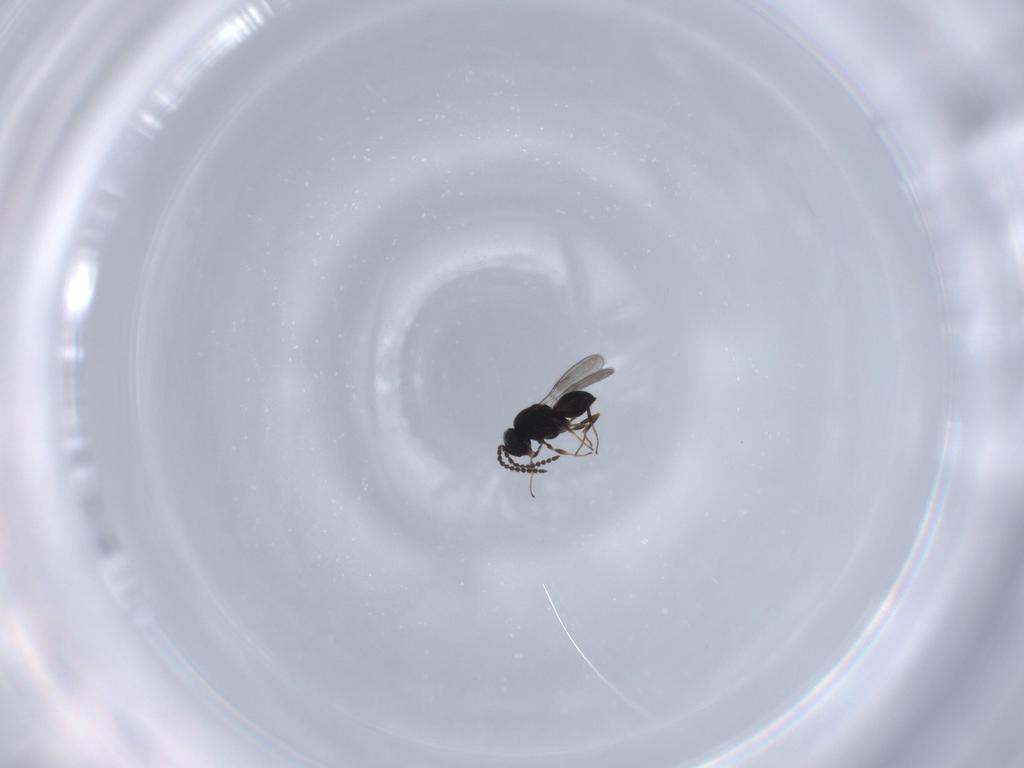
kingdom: Animalia
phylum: Arthropoda
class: Insecta
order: Hymenoptera
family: Scelionidae
